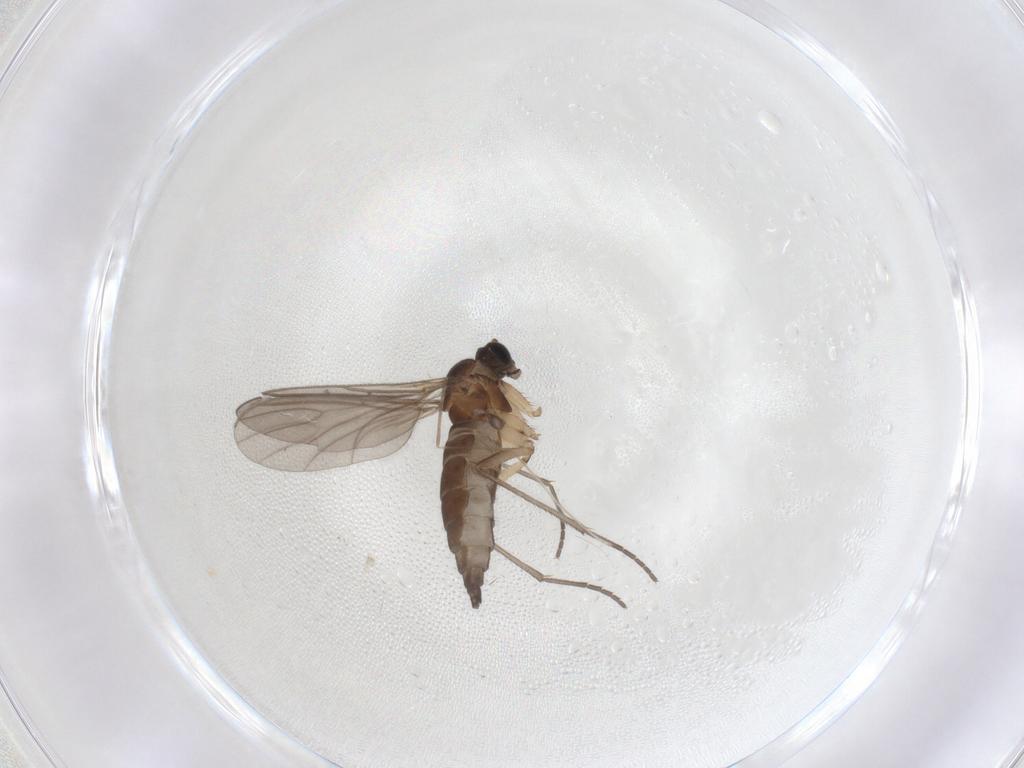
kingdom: Animalia
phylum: Arthropoda
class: Insecta
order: Diptera
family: Sciaridae
